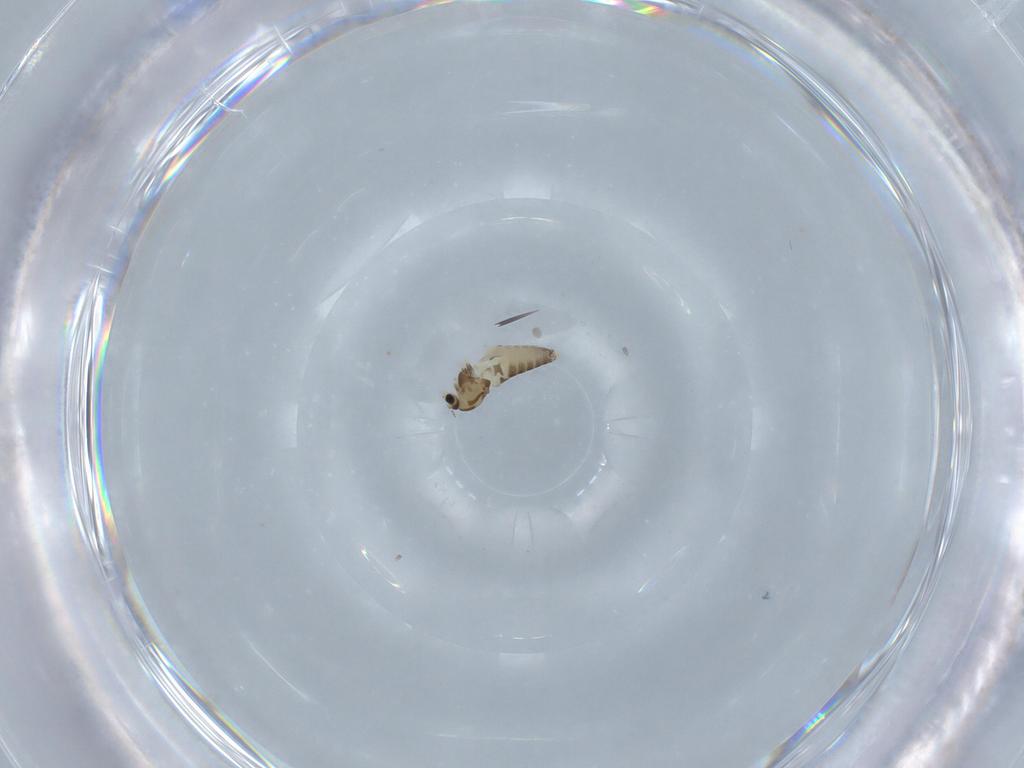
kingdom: Animalia
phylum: Arthropoda
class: Insecta
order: Diptera
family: Chironomidae
